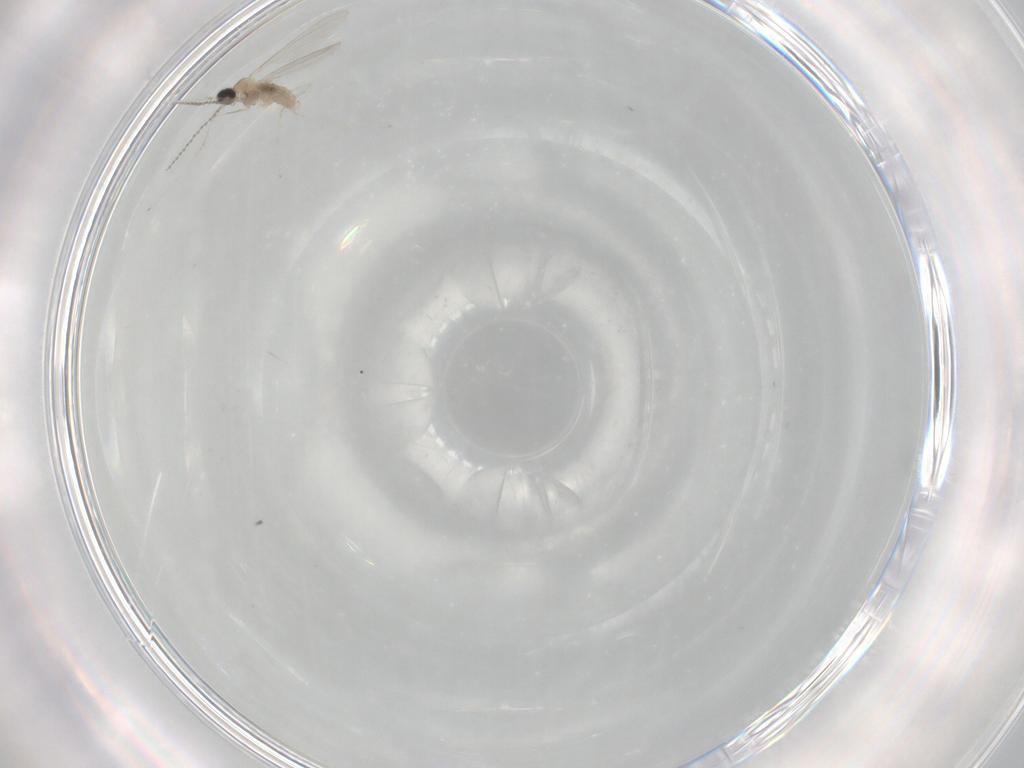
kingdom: Animalia
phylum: Arthropoda
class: Insecta
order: Diptera
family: Chironomidae
